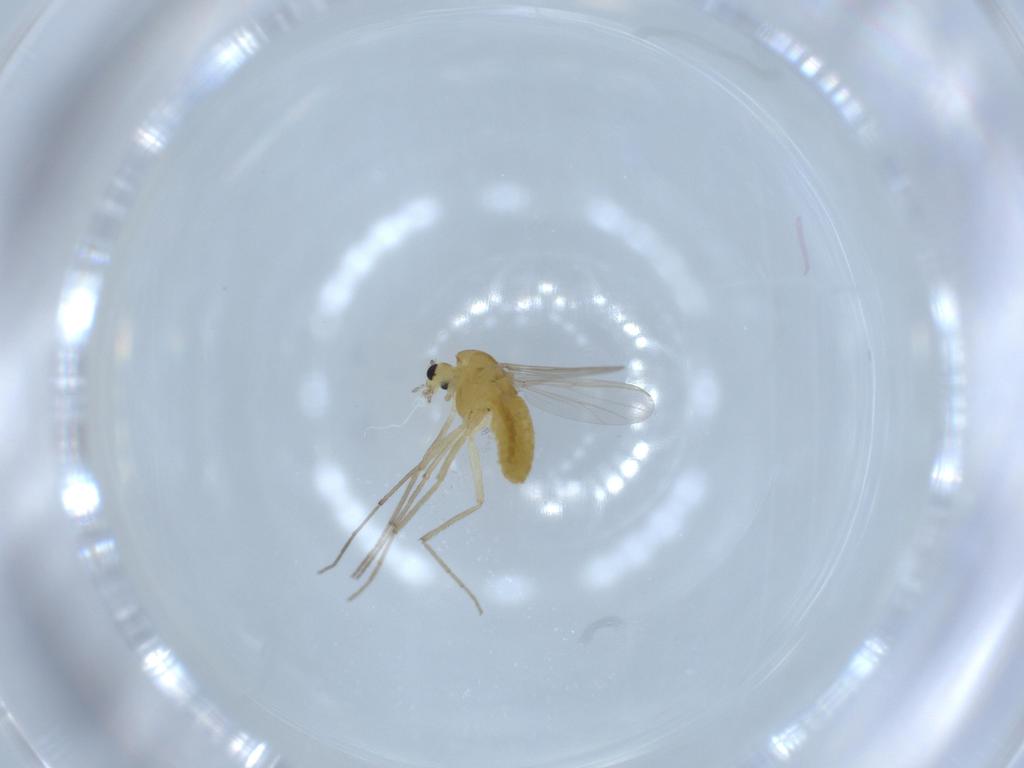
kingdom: Animalia
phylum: Arthropoda
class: Insecta
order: Diptera
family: Chironomidae
